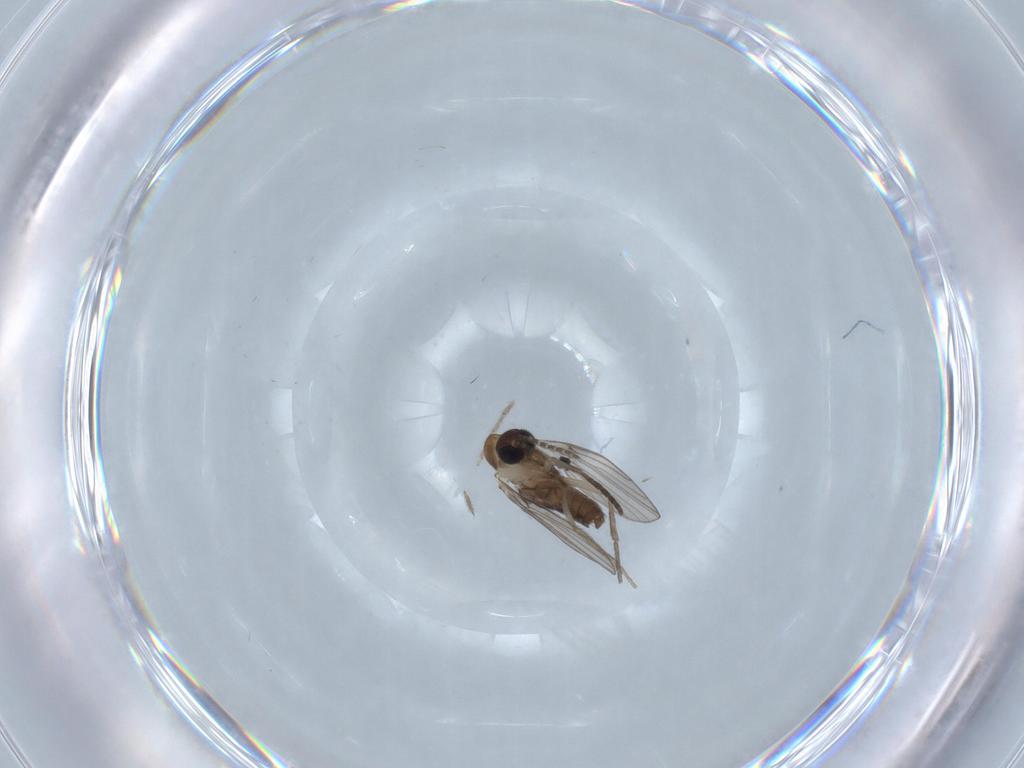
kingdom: Animalia
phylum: Arthropoda
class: Insecta
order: Diptera
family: Psychodidae
